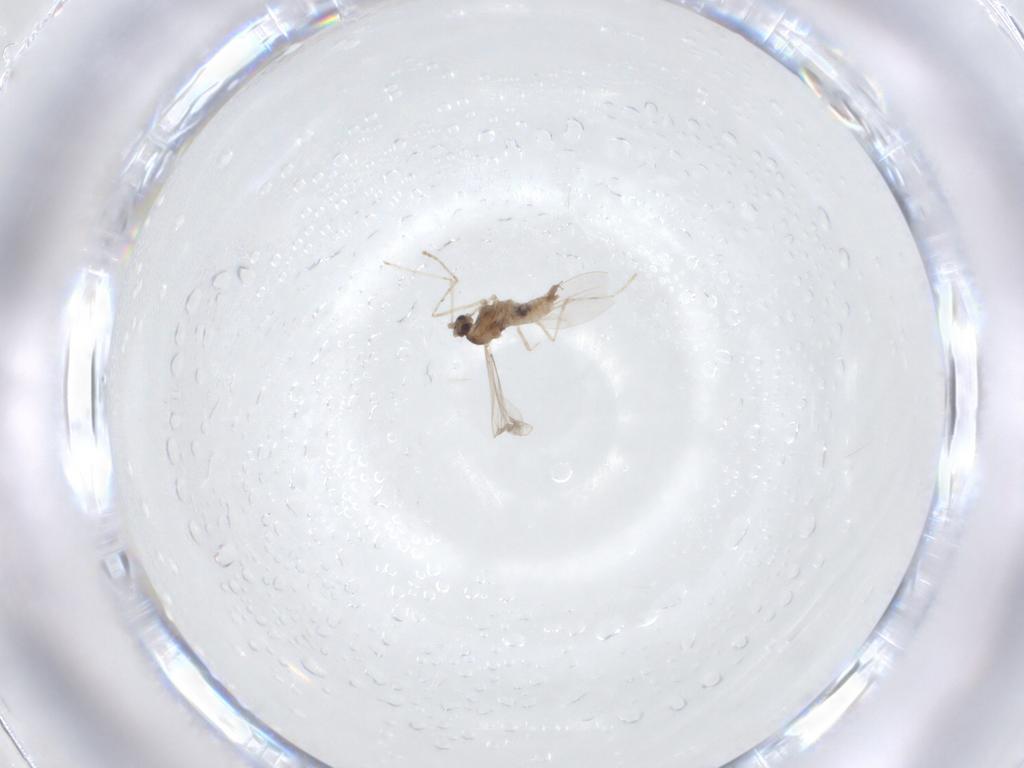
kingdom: Animalia
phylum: Arthropoda
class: Insecta
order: Diptera
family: Cecidomyiidae
